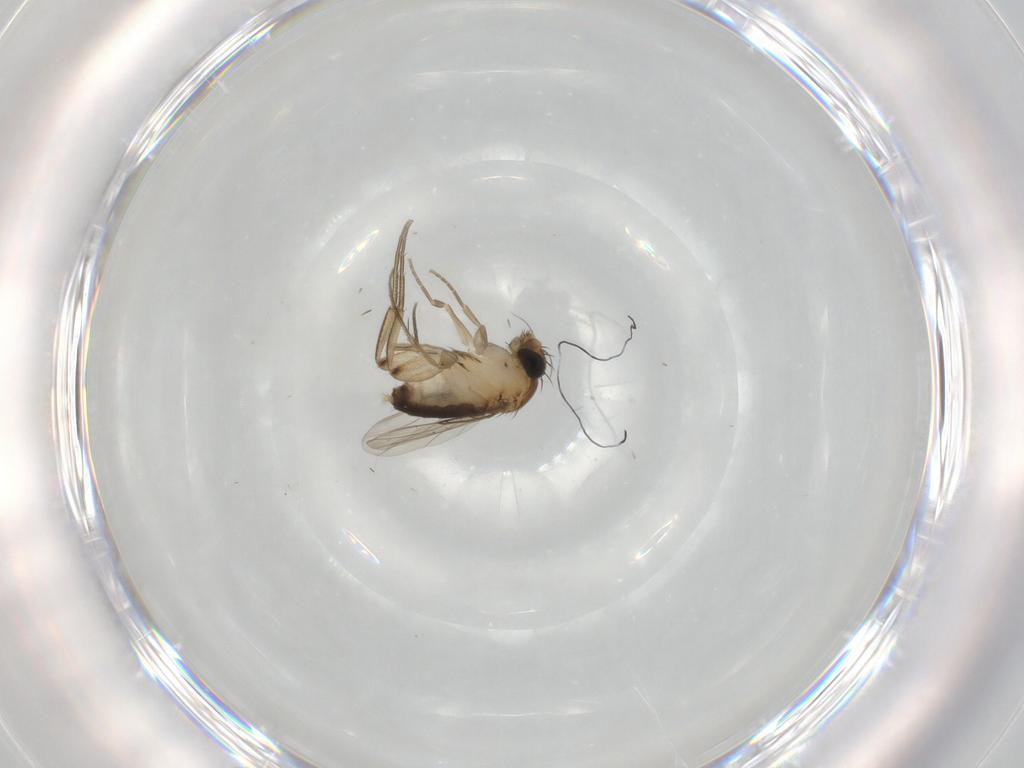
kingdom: Animalia
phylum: Arthropoda
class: Insecta
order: Diptera
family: Phoridae
